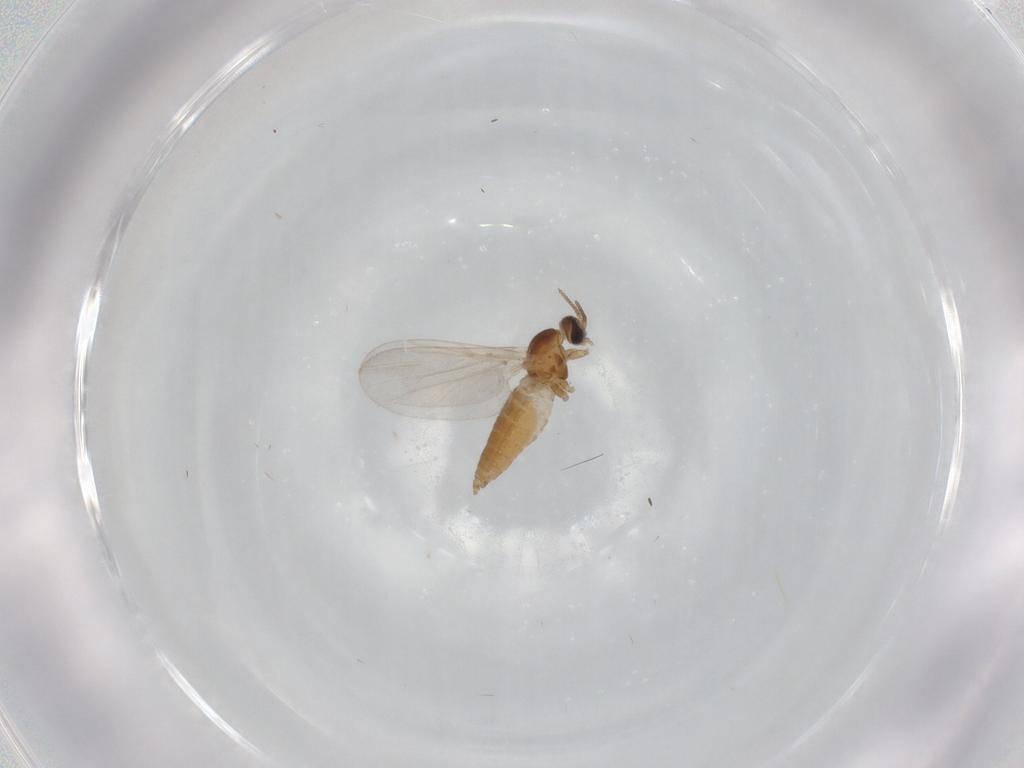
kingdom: Animalia
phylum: Arthropoda
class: Insecta
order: Diptera
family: Cecidomyiidae
